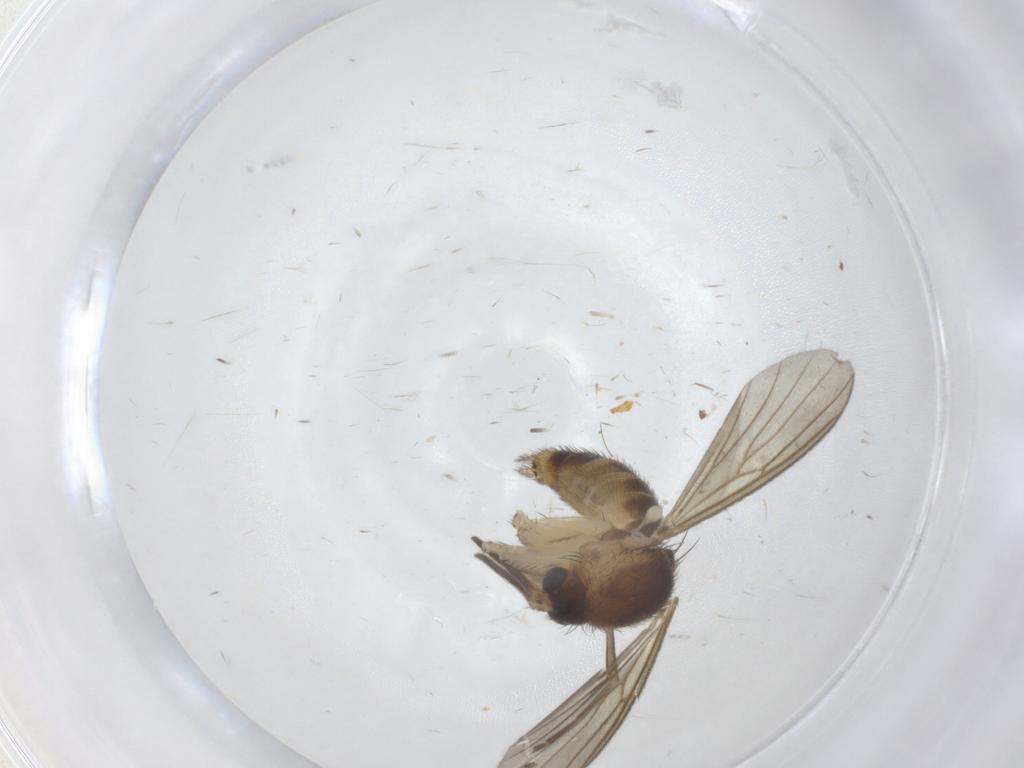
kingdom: Animalia
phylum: Arthropoda
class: Insecta
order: Diptera
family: Mycetophilidae
